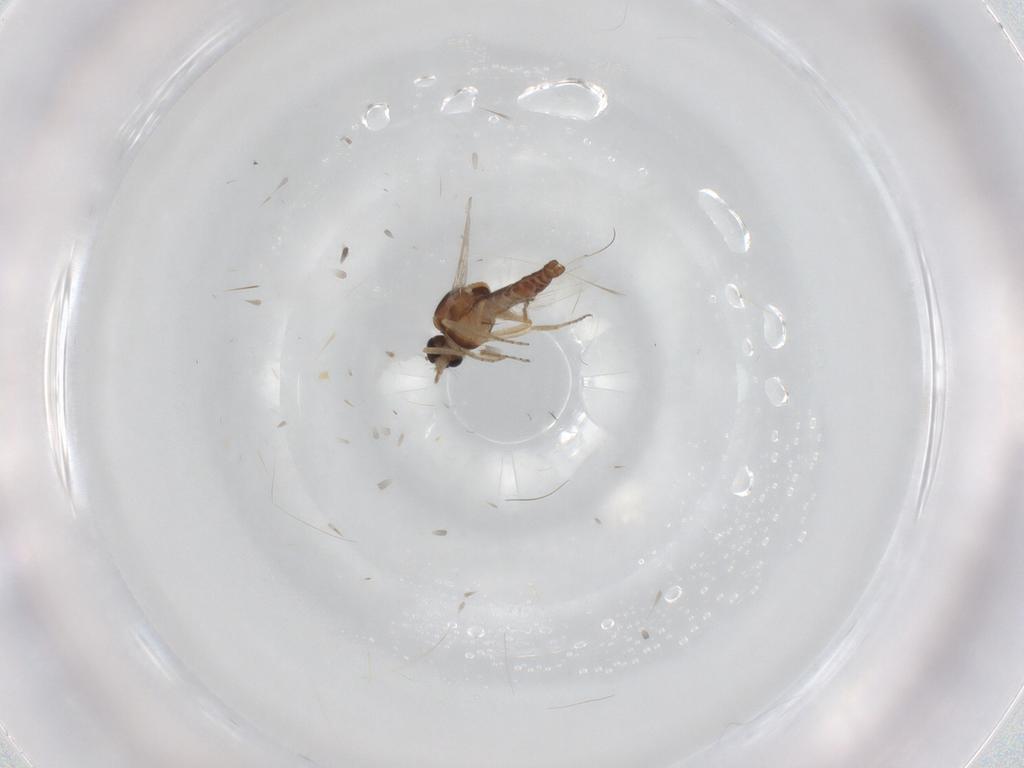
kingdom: Animalia
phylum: Arthropoda
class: Insecta
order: Diptera
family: Ceratopogonidae
